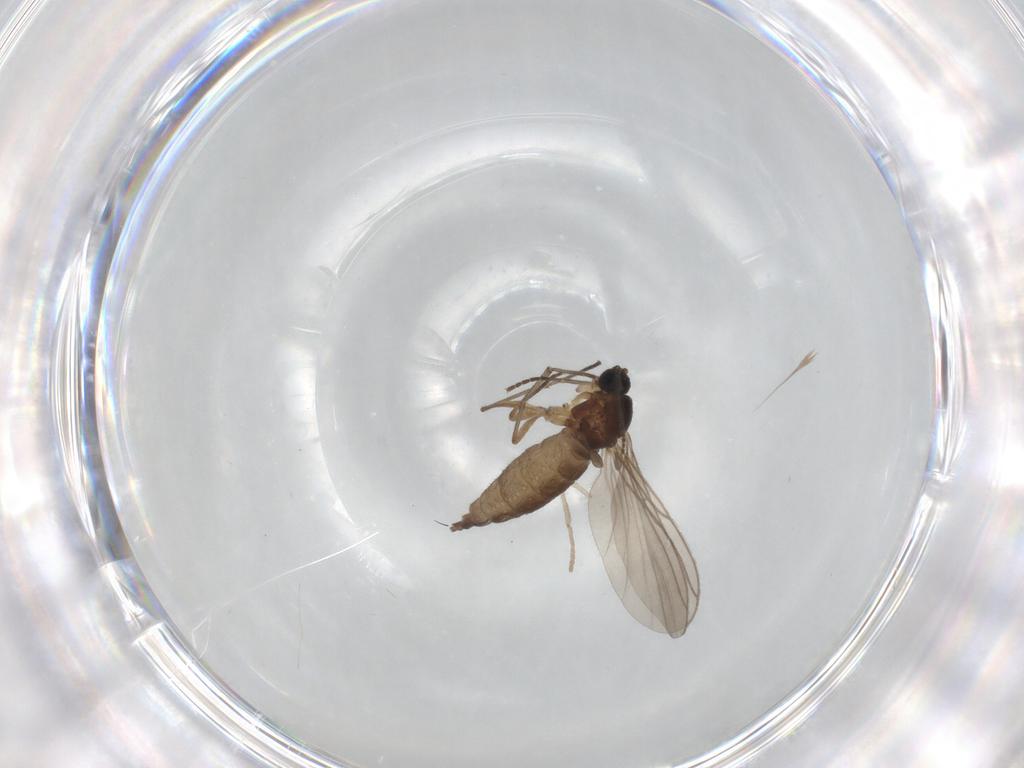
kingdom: Animalia
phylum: Arthropoda
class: Insecta
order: Diptera
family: Sciaridae
